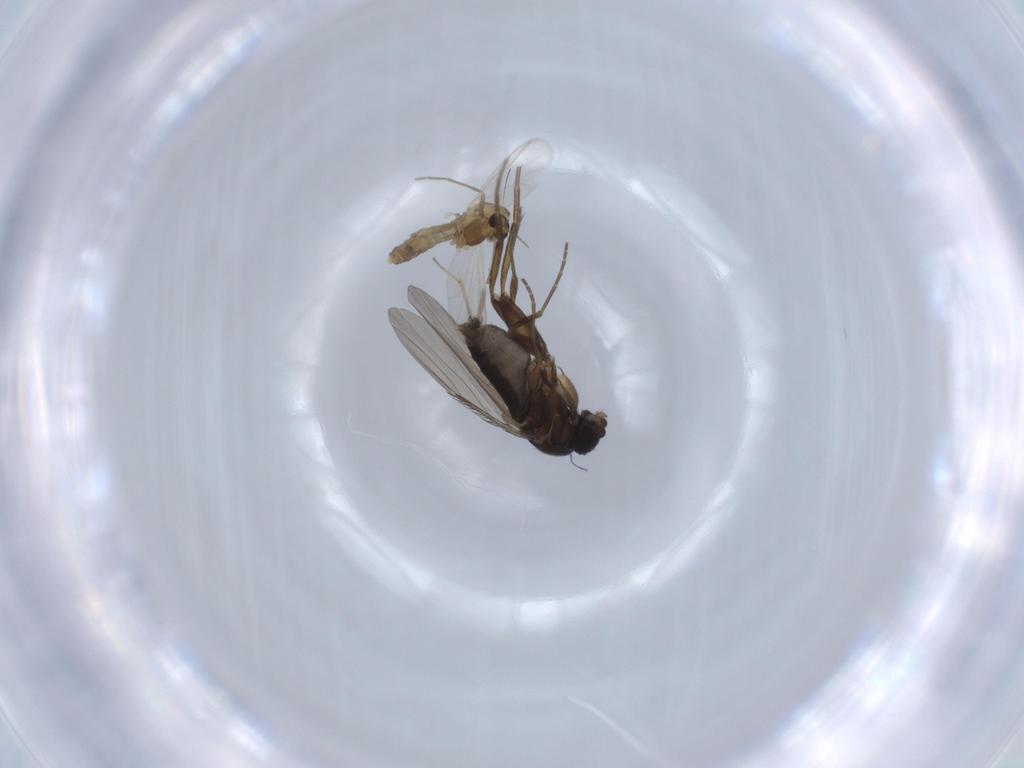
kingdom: Animalia
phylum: Arthropoda
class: Insecta
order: Diptera
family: Phoridae
